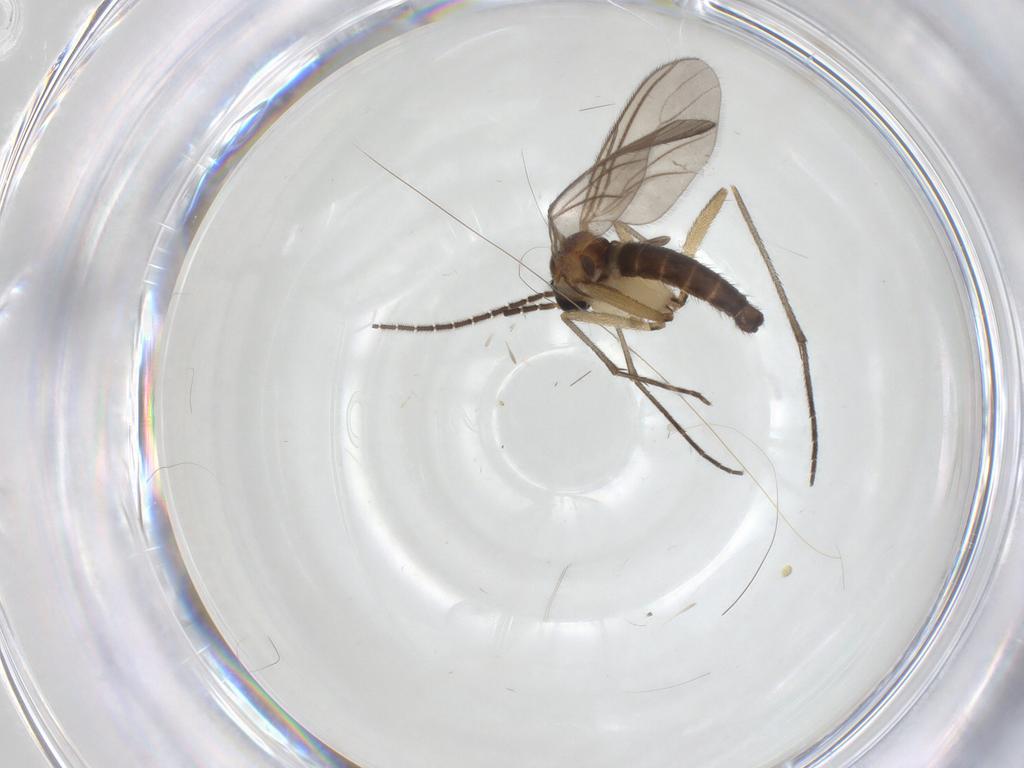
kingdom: Animalia
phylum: Arthropoda
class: Insecta
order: Diptera
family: Sciaridae
